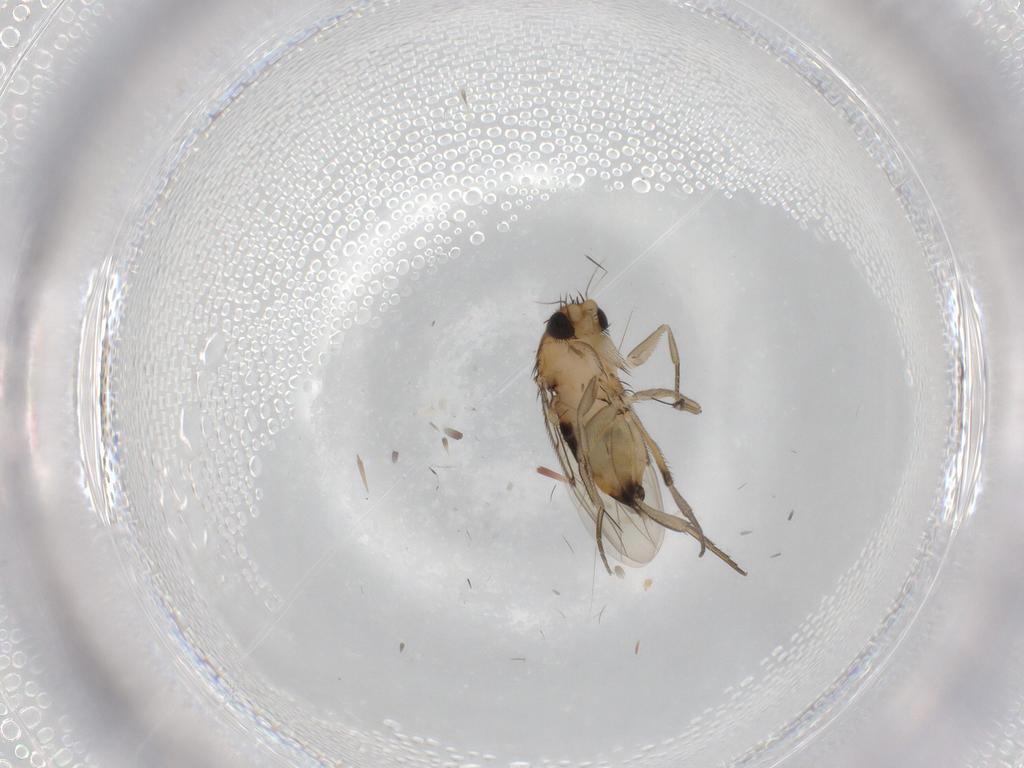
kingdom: Animalia
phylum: Arthropoda
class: Insecta
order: Diptera
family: Phoridae
